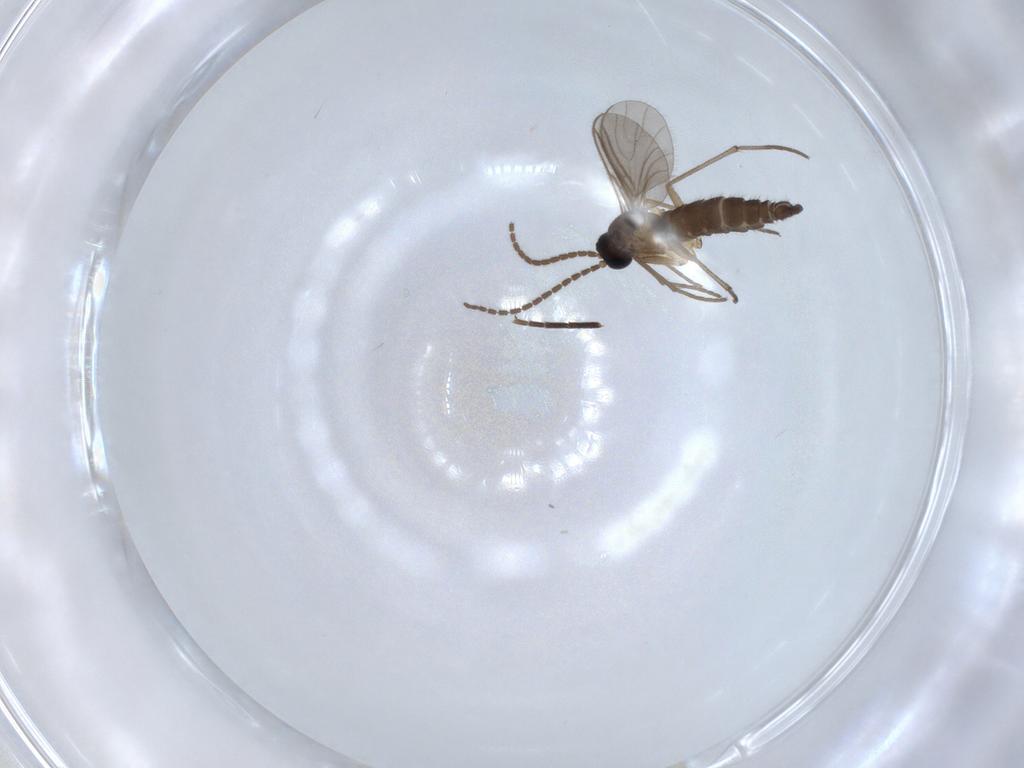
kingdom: Animalia
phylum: Arthropoda
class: Insecta
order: Diptera
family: Sciaridae
